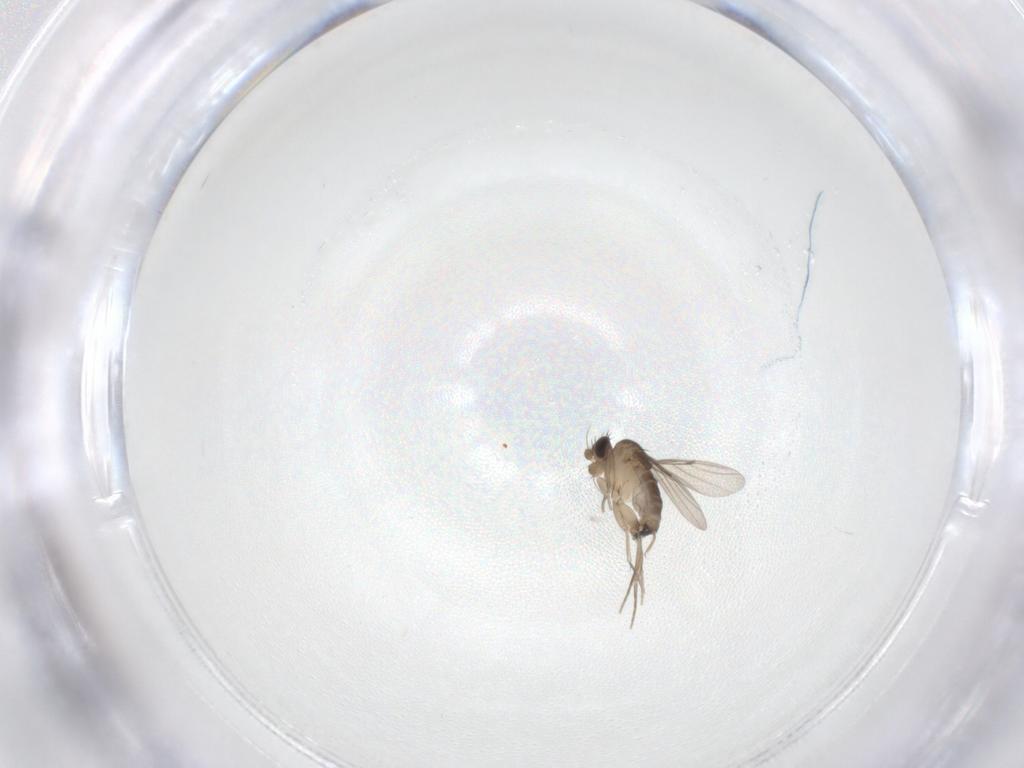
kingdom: Animalia
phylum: Arthropoda
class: Insecta
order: Diptera
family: Phoridae
